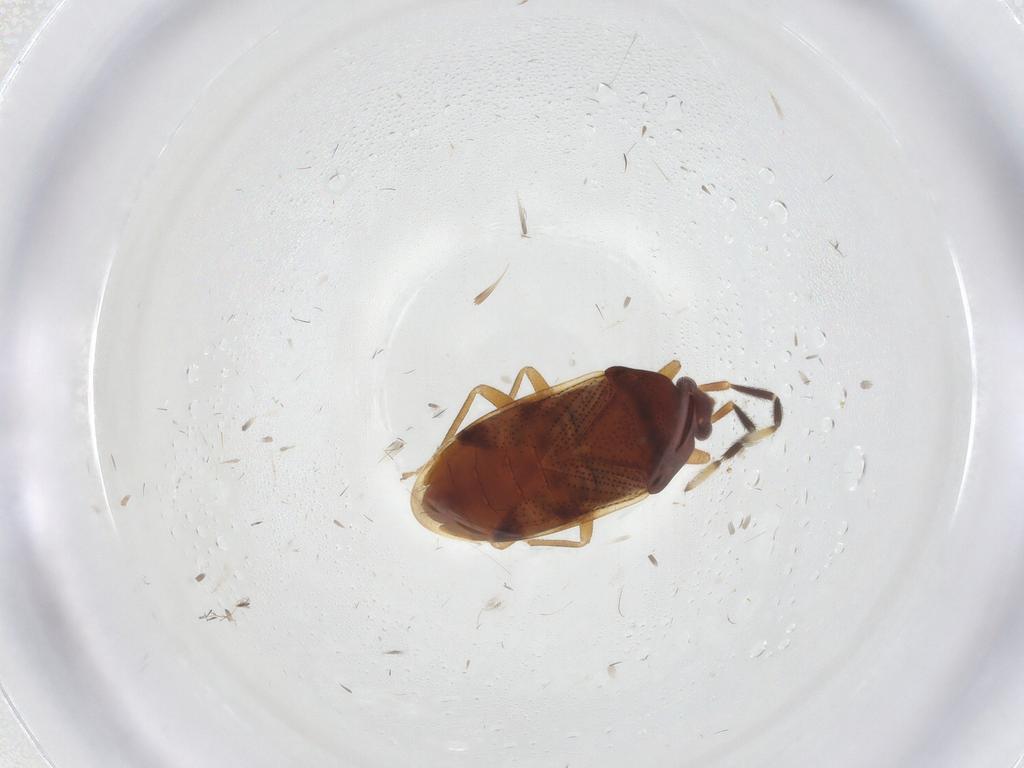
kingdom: Animalia
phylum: Arthropoda
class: Insecta
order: Hemiptera
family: Rhyparochromidae
